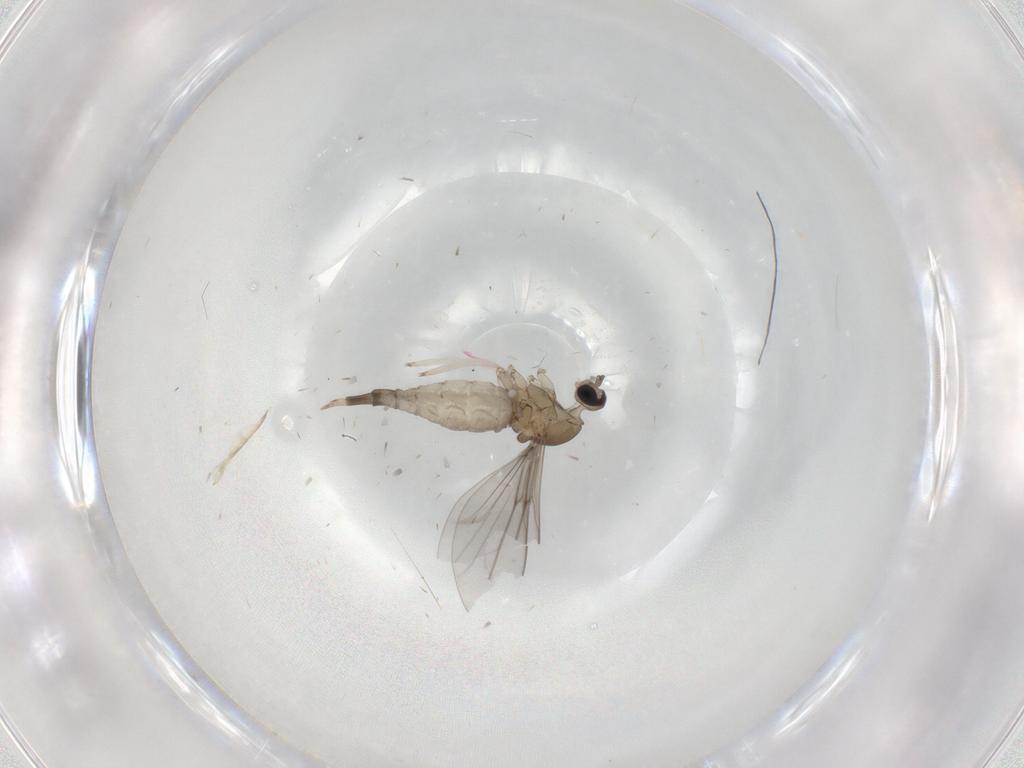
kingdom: Animalia
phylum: Arthropoda
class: Insecta
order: Diptera
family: Cecidomyiidae
